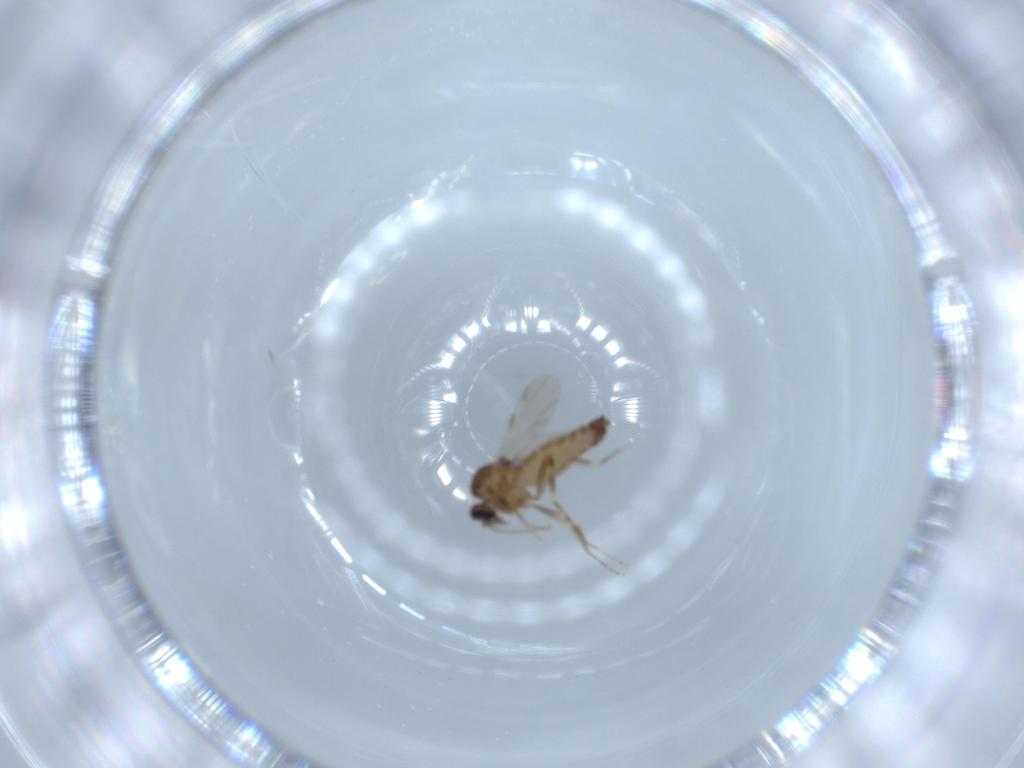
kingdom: Animalia
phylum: Arthropoda
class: Insecta
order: Diptera
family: Ceratopogonidae
